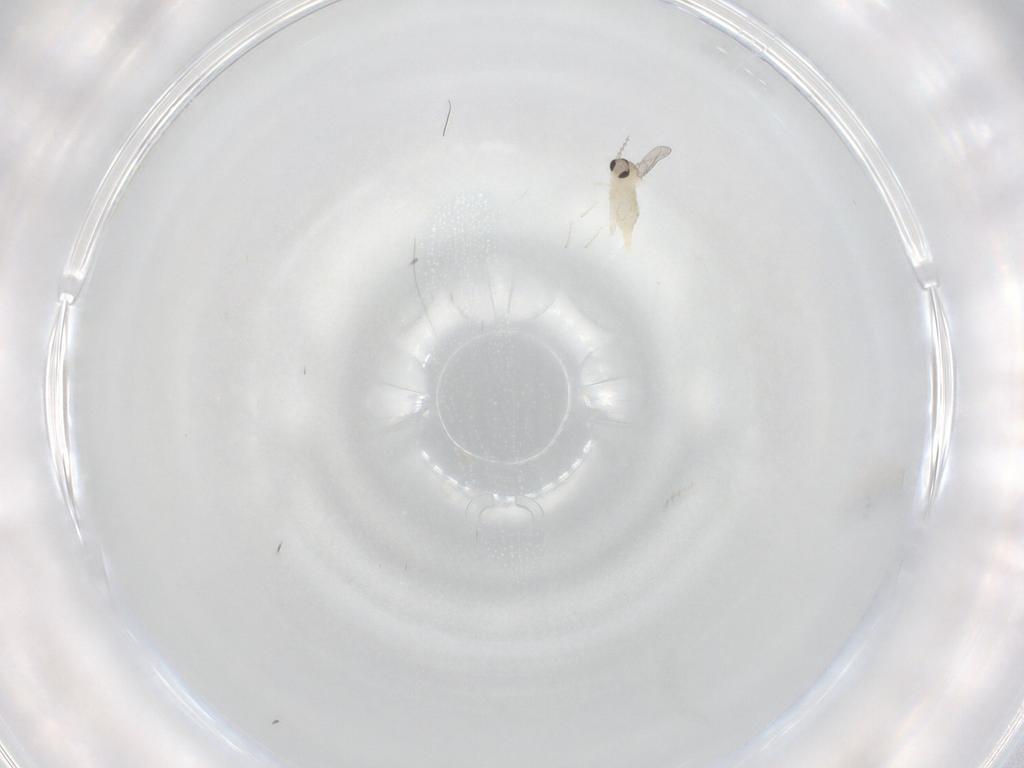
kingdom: Animalia
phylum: Arthropoda
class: Insecta
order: Diptera
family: Cecidomyiidae
